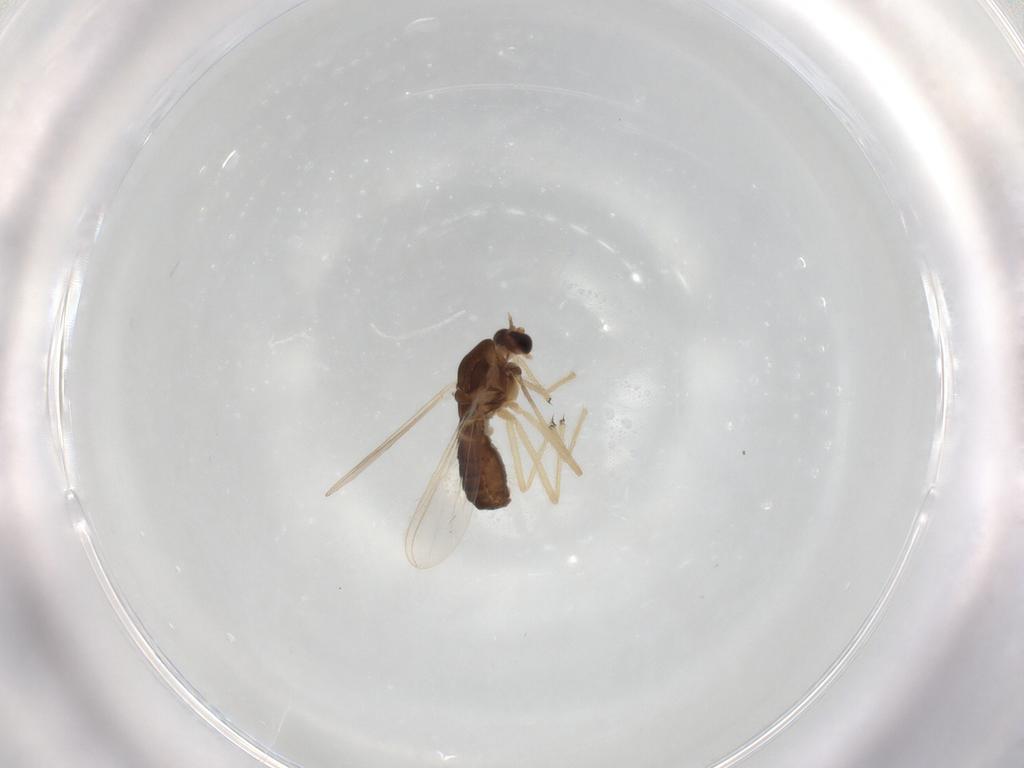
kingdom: Animalia
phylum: Arthropoda
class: Insecta
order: Diptera
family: Chironomidae
